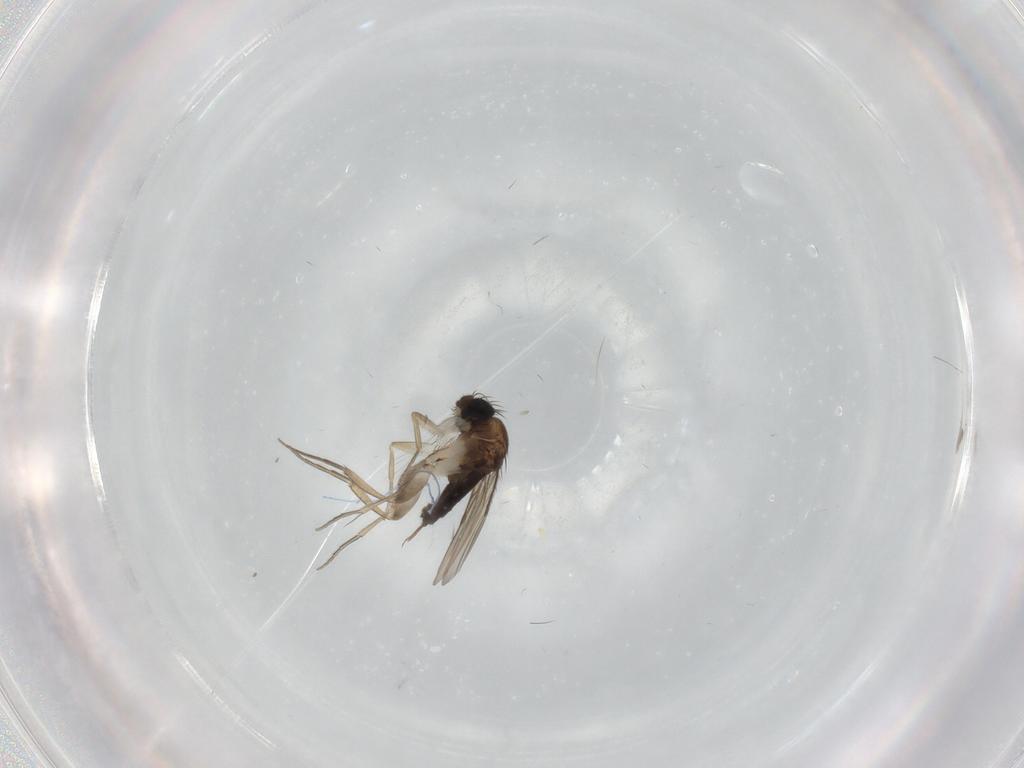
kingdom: Animalia
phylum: Arthropoda
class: Insecta
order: Diptera
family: Phoridae
